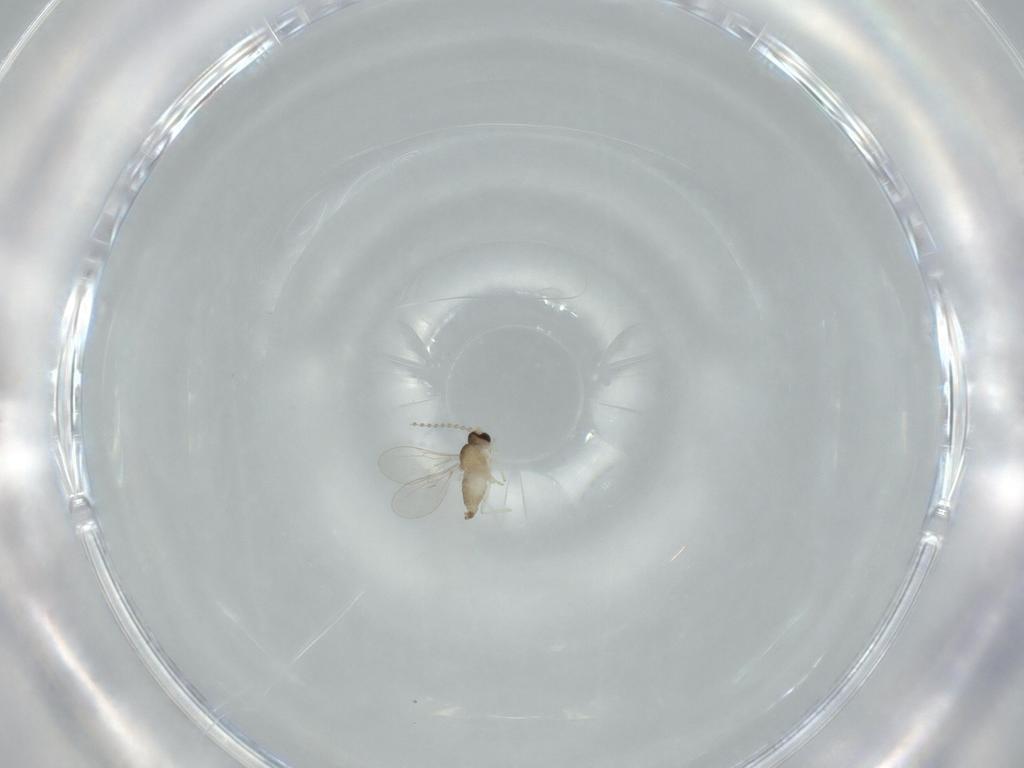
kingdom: Animalia
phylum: Arthropoda
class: Insecta
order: Diptera
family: Cecidomyiidae
